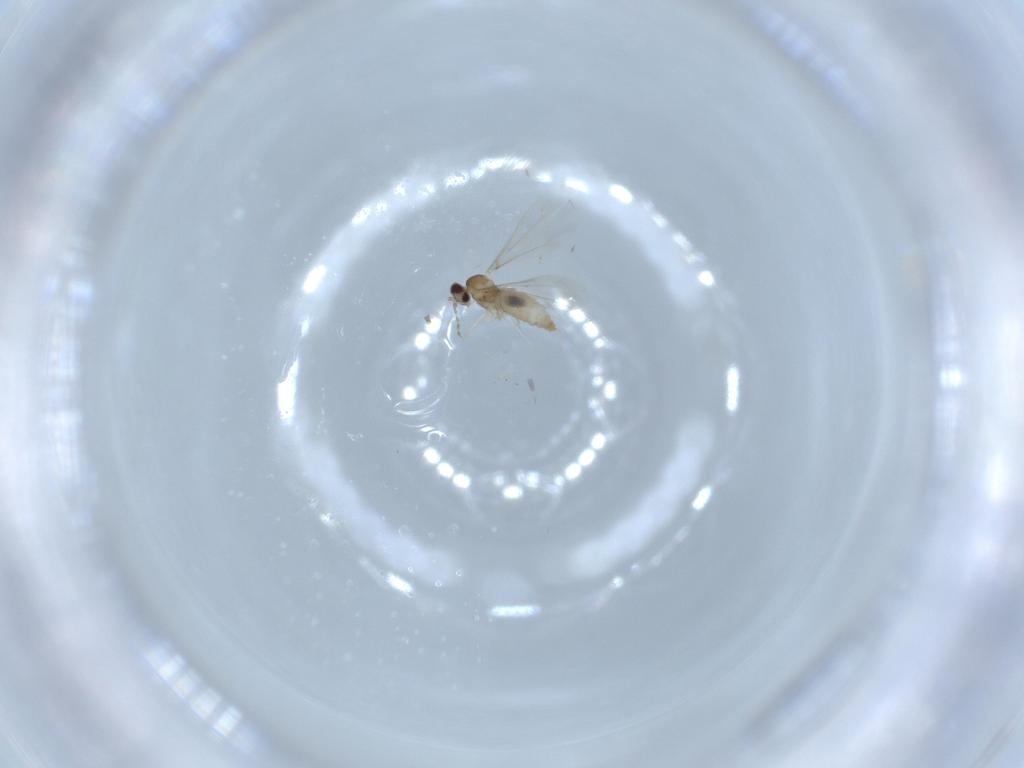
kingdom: Animalia
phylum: Arthropoda
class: Insecta
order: Diptera
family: Cecidomyiidae
